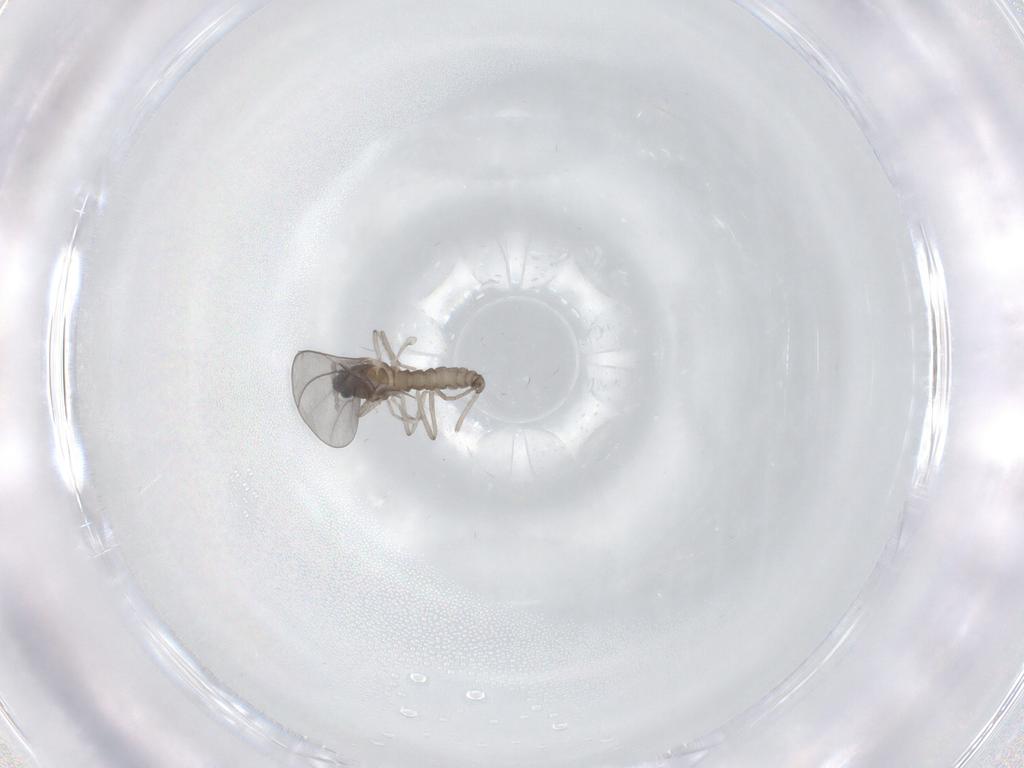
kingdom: Animalia
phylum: Arthropoda
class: Insecta
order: Diptera
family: Cecidomyiidae
